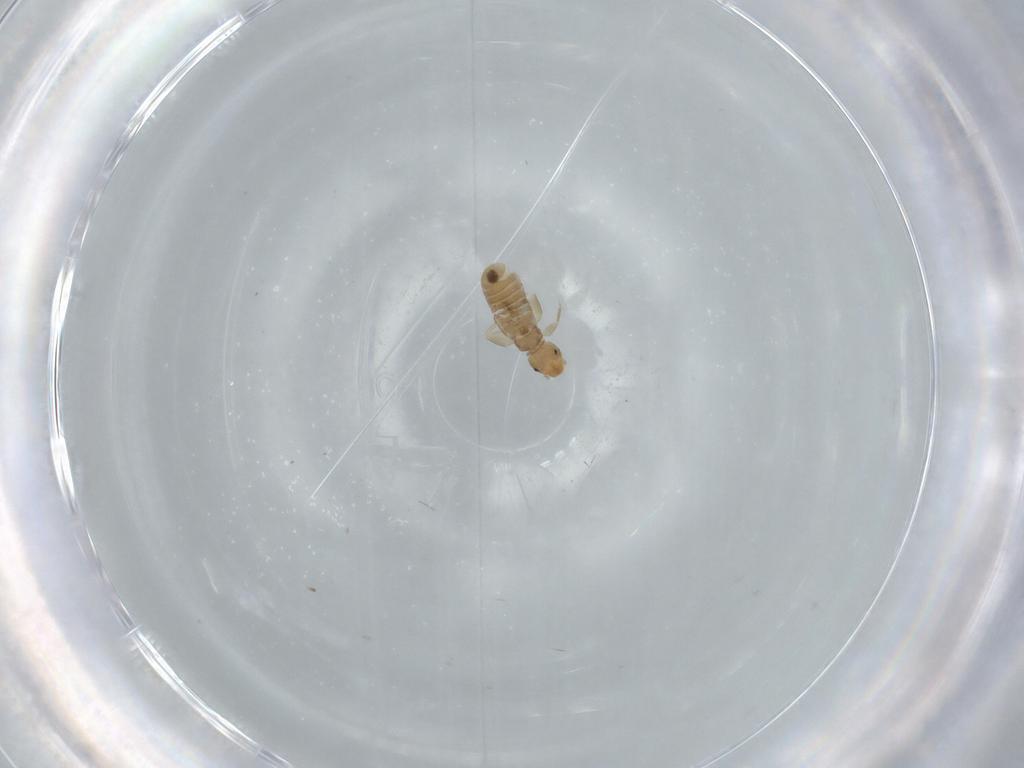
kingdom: Animalia
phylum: Arthropoda
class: Insecta
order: Psocodea
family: Liposcelididae
